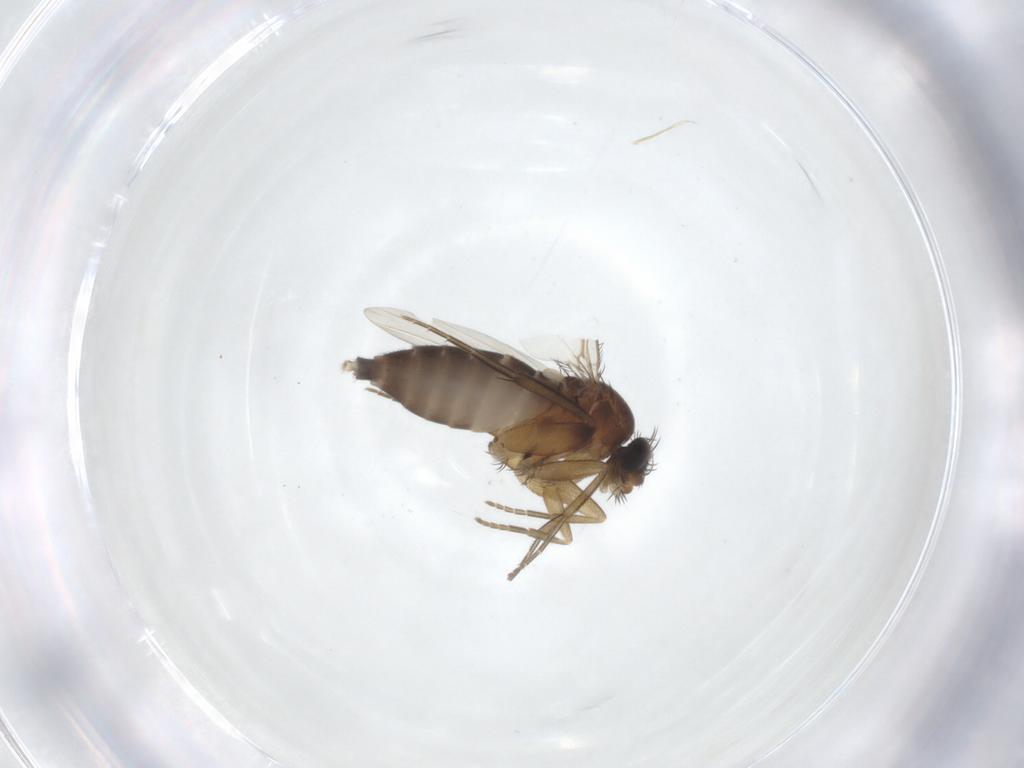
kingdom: Animalia
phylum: Arthropoda
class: Insecta
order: Diptera
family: Phoridae
